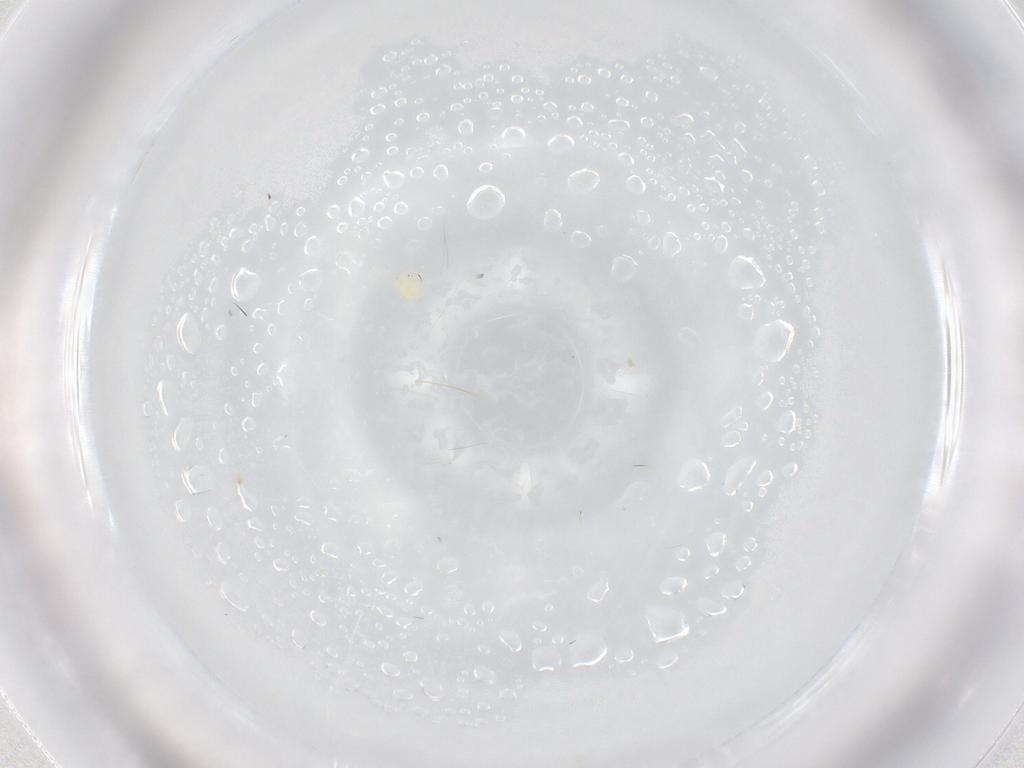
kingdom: Animalia
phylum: Arthropoda
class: Arachnida
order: Trombidiformes
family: Hydryphantidae
